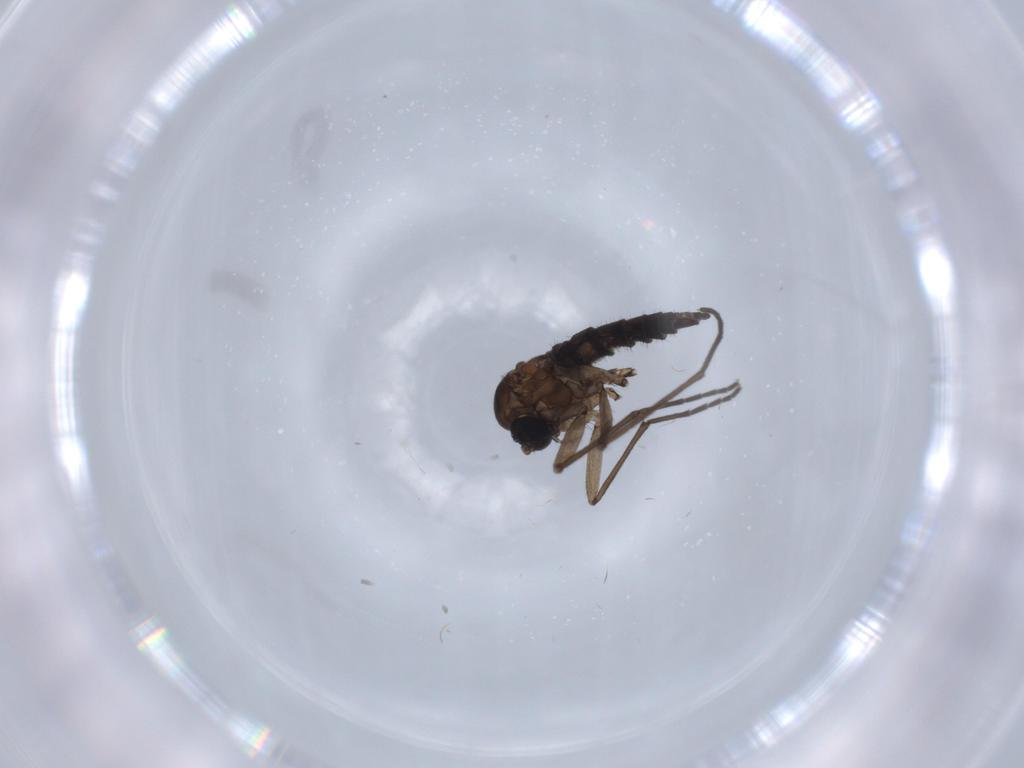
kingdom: Animalia
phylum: Arthropoda
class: Insecta
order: Diptera
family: Sciaridae
